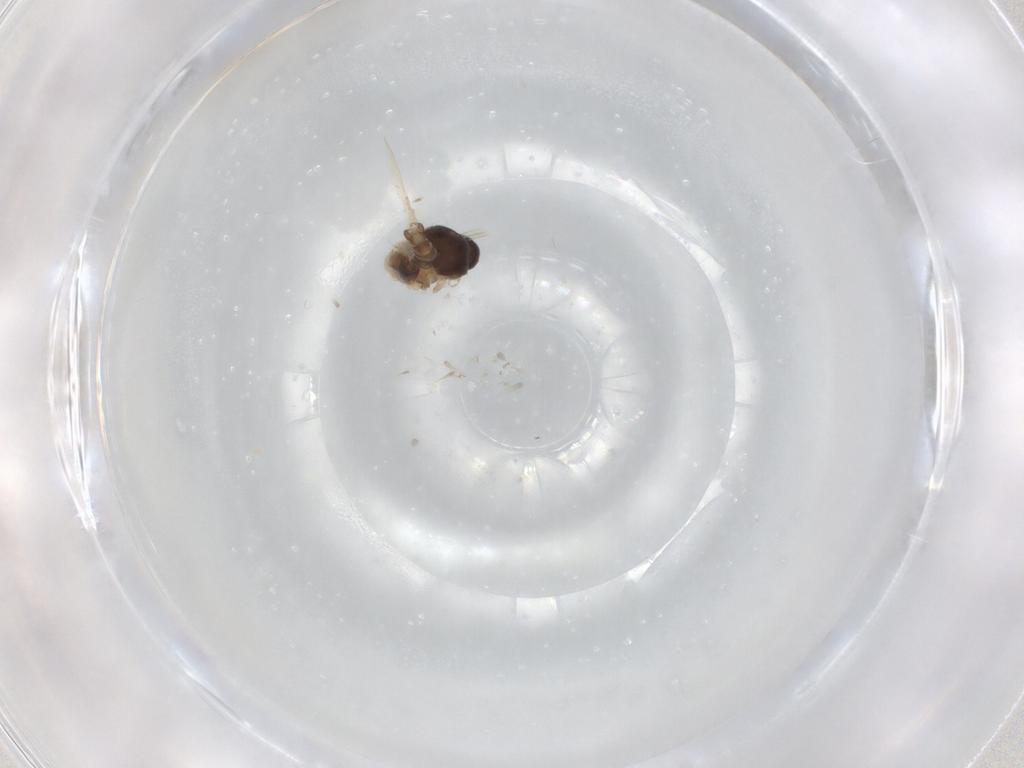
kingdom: Animalia
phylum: Arthropoda
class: Insecta
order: Diptera
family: Ceratopogonidae
